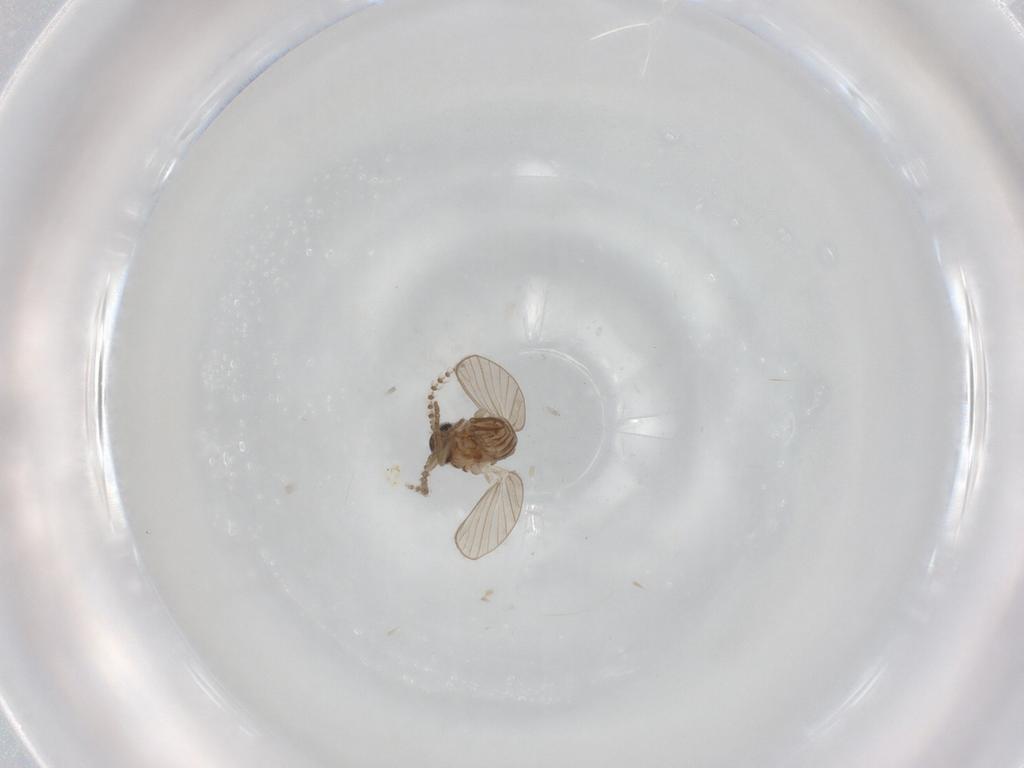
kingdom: Animalia
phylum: Arthropoda
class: Insecta
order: Diptera
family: Psychodidae
